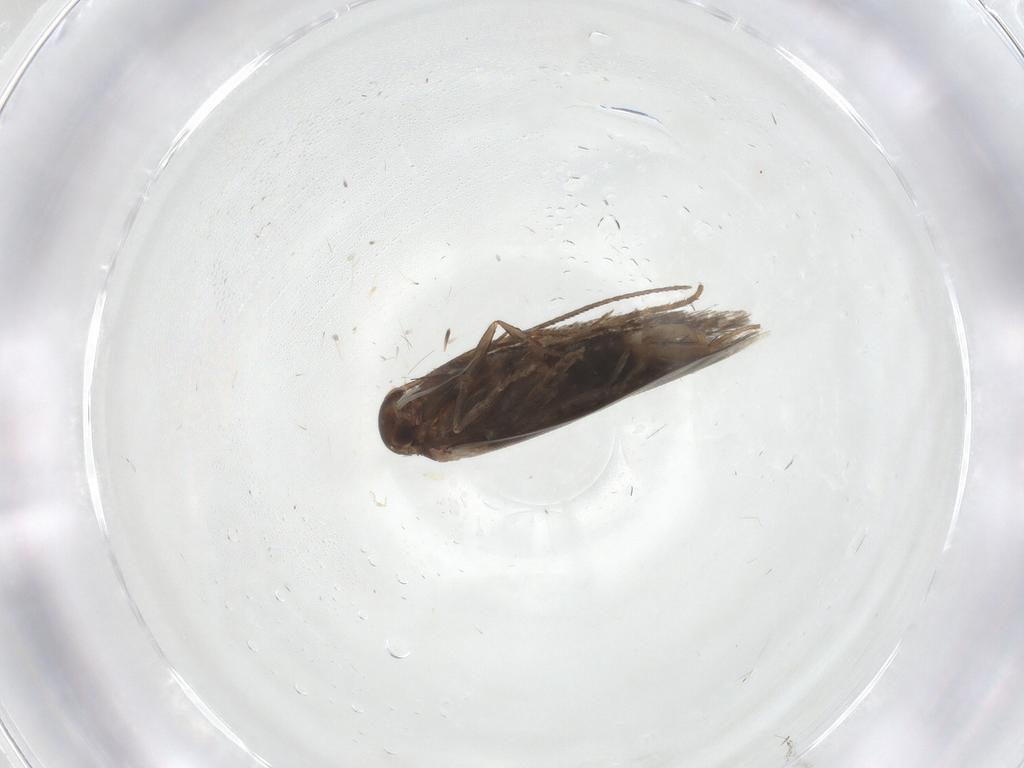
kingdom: Animalia
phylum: Arthropoda
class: Insecta
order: Lepidoptera
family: Elachistidae
